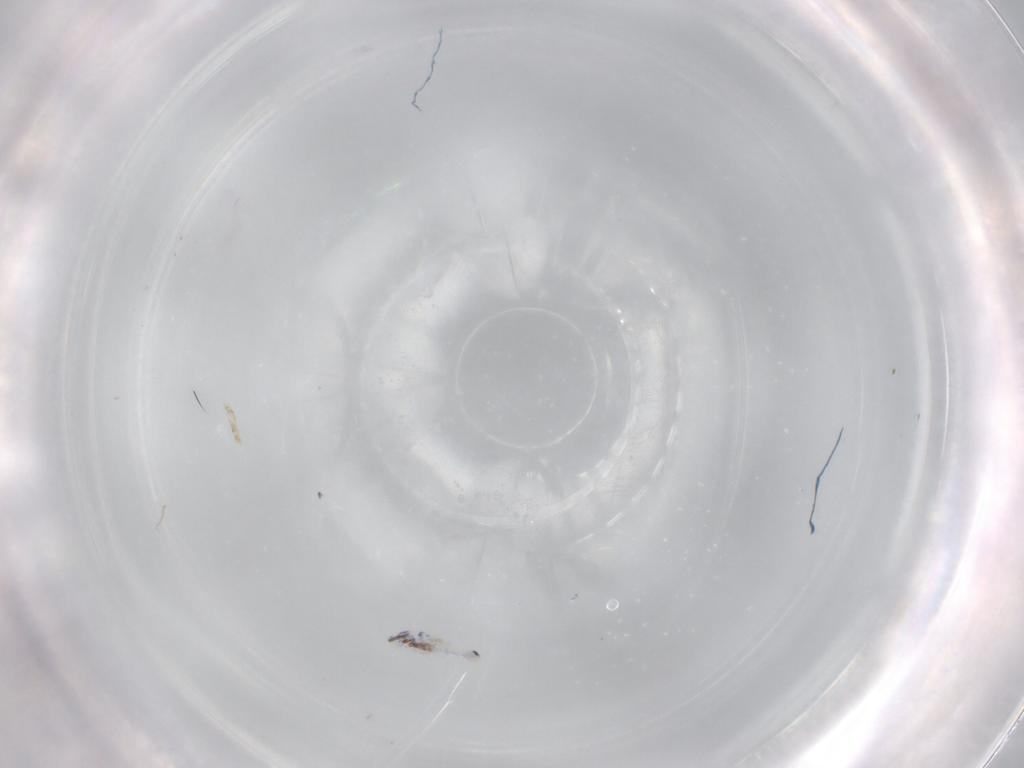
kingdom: Animalia
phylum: Arthropoda
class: Collembola
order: Entomobryomorpha
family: Entomobryidae
